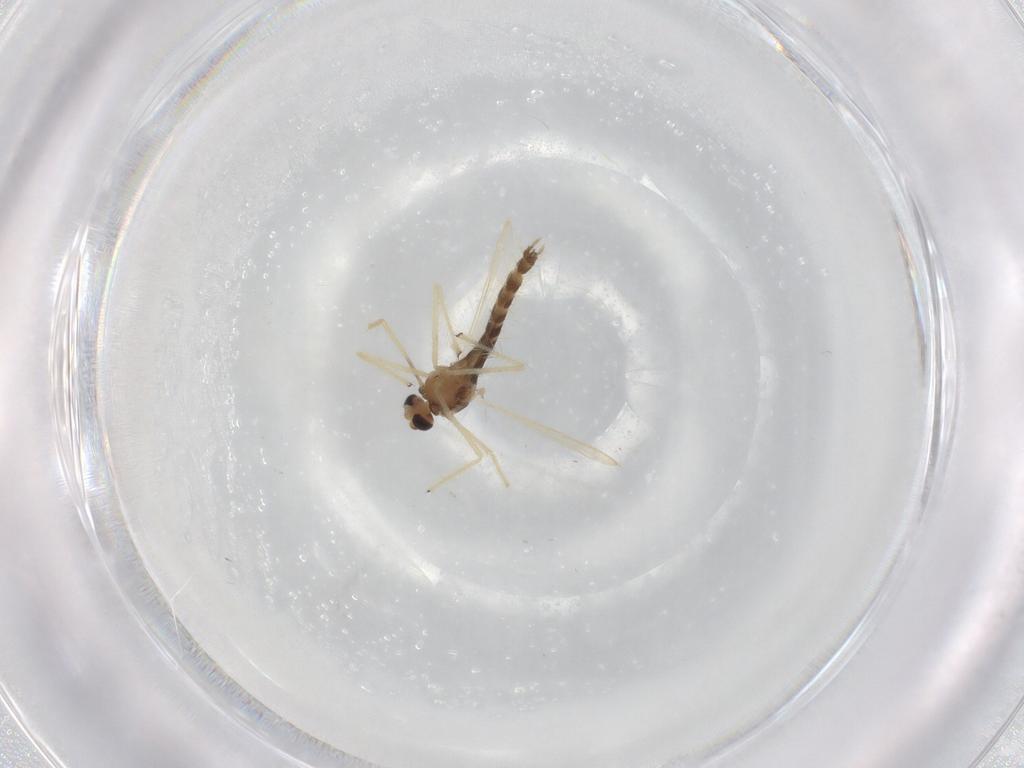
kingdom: Animalia
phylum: Arthropoda
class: Insecta
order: Diptera
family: Chironomidae
